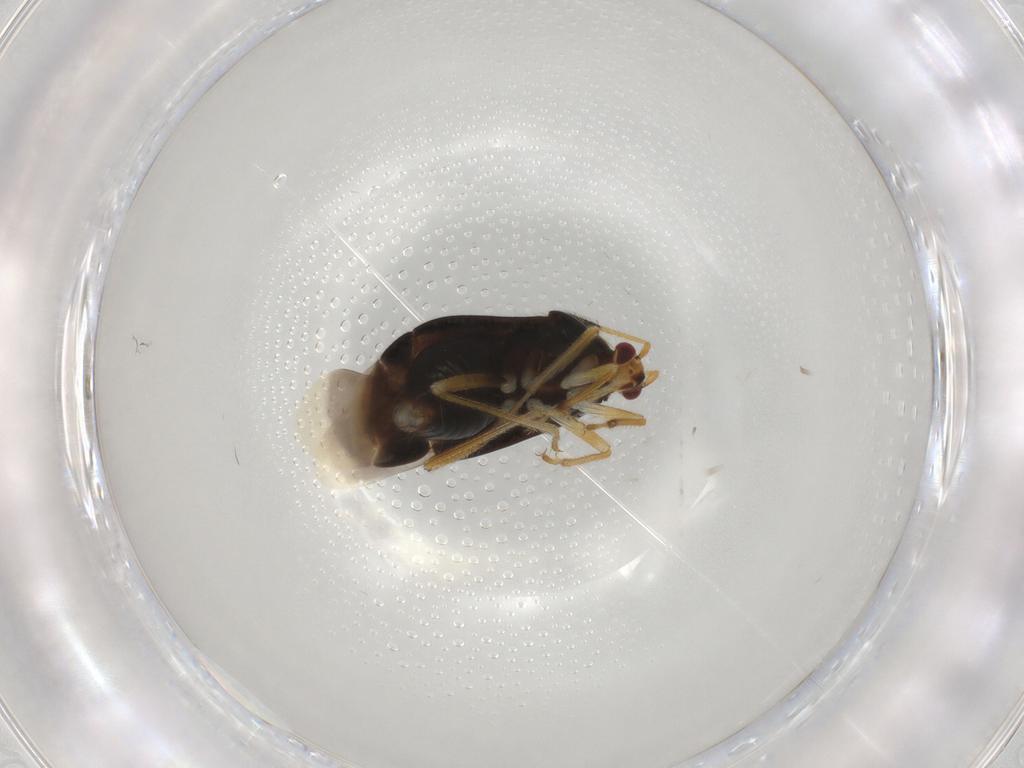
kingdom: Animalia
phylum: Arthropoda
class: Insecta
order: Hemiptera
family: Miridae
